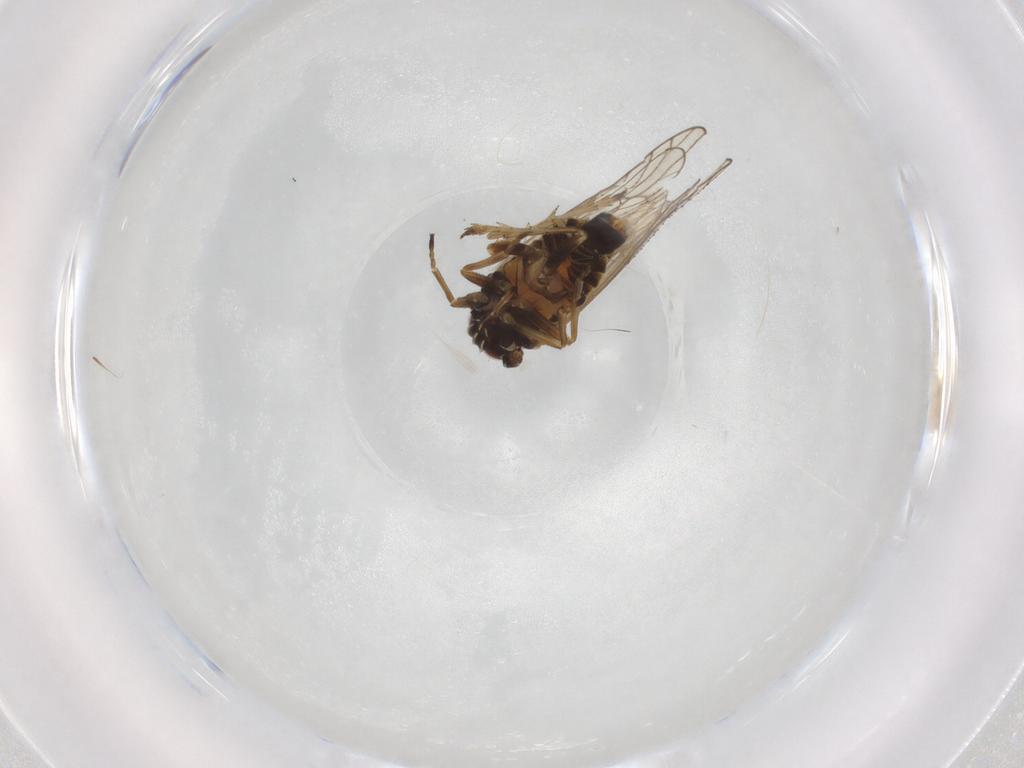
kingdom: Animalia
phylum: Arthropoda
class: Insecta
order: Hemiptera
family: Delphacidae
